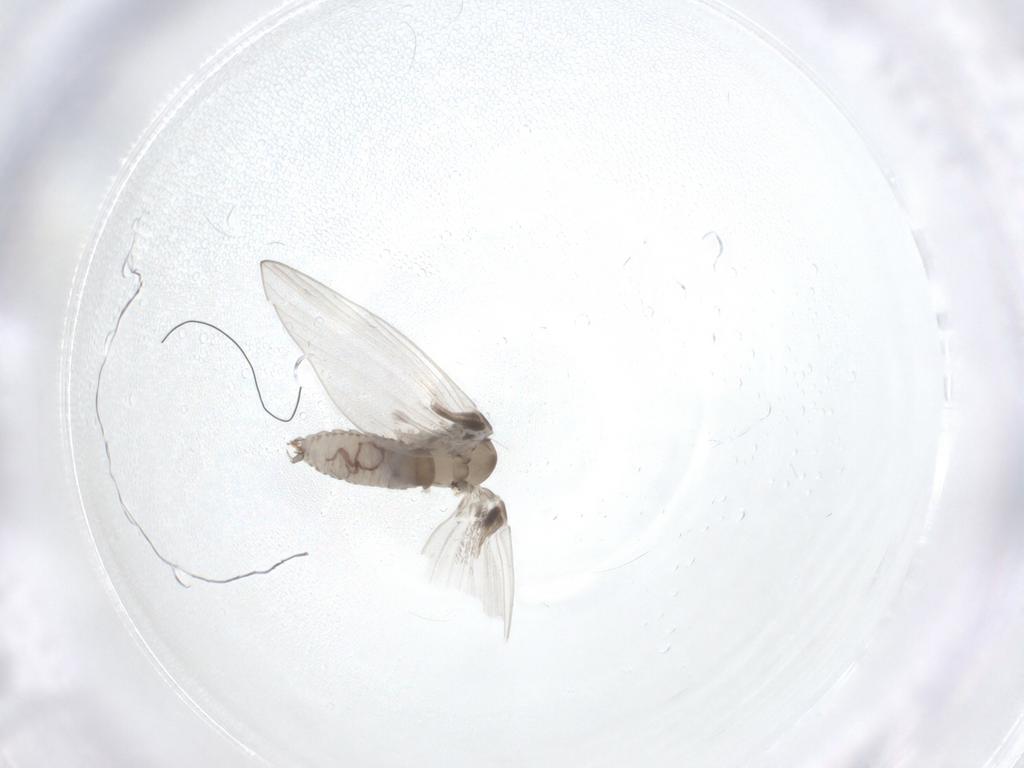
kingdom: Animalia
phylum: Arthropoda
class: Insecta
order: Diptera
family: Psychodidae
